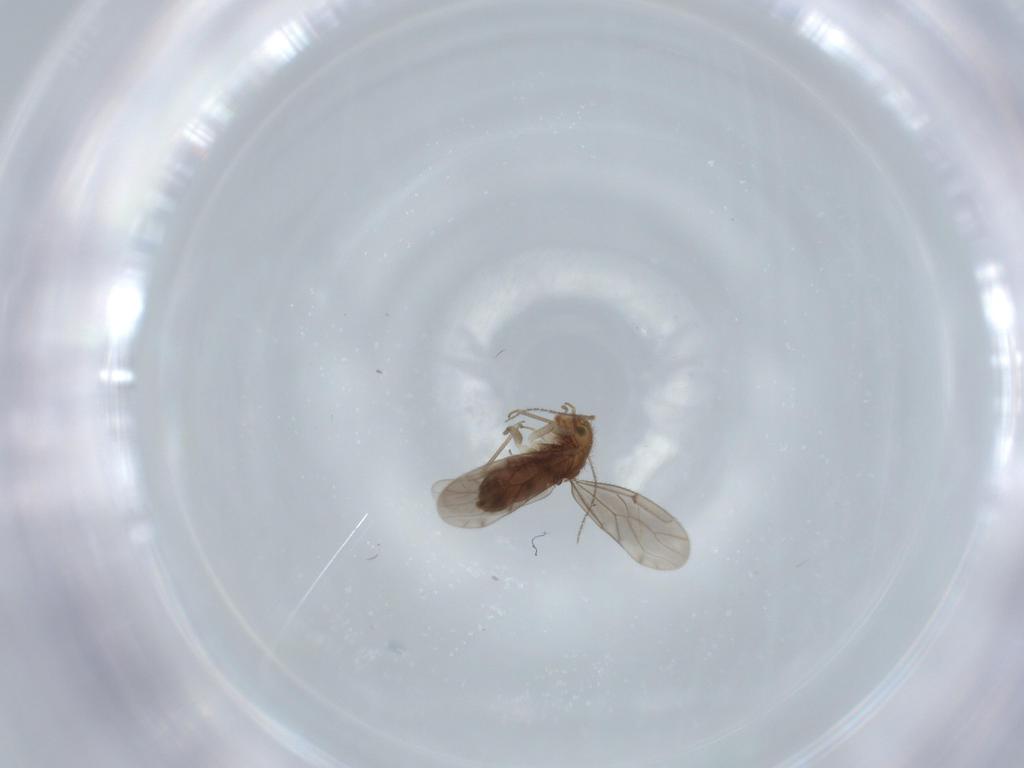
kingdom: Animalia
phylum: Arthropoda
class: Insecta
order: Psocodea
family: Ectopsocidae
